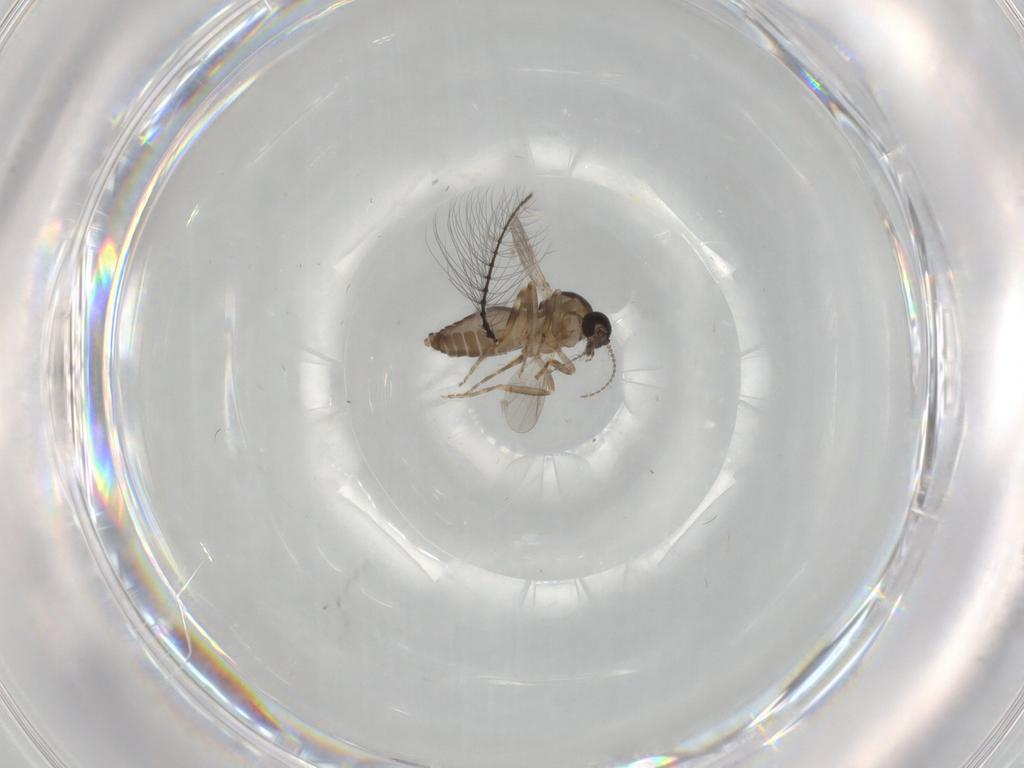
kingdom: Animalia
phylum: Arthropoda
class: Insecta
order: Diptera
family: Ceratopogonidae
